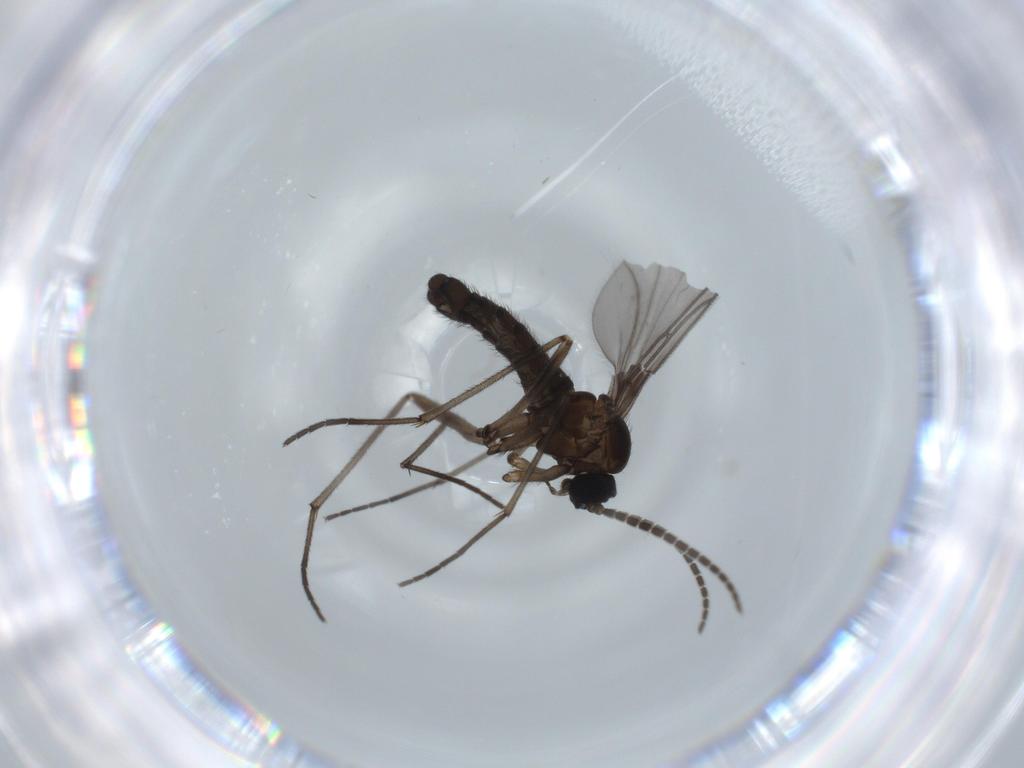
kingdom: Animalia
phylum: Arthropoda
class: Insecta
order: Diptera
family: Sciaridae
